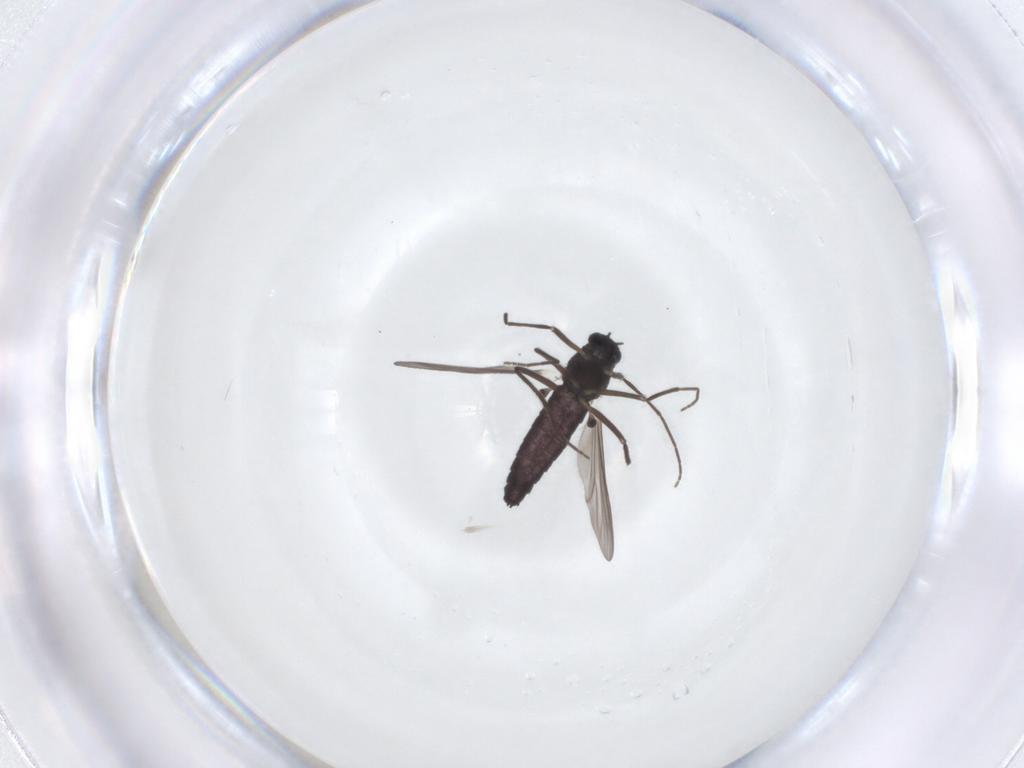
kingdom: Animalia
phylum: Arthropoda
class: Insecta
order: Diptera
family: Chironomidae
